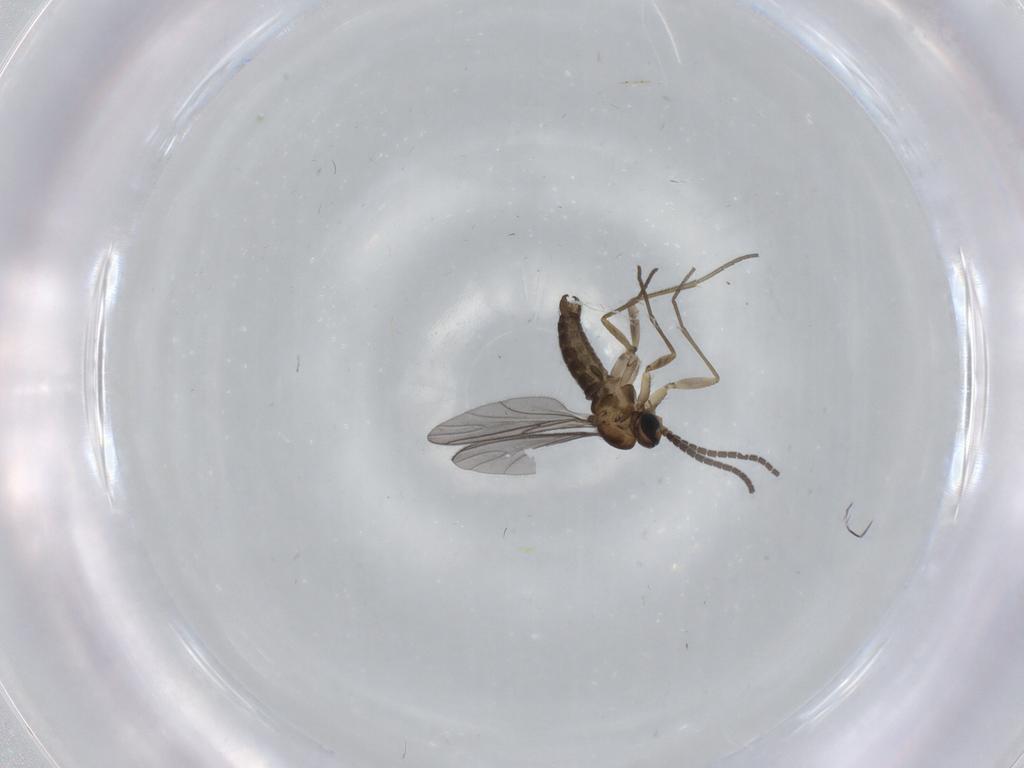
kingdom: Animalia
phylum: Arthropoda
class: Insecta
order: Diptera
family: Sciaridae
